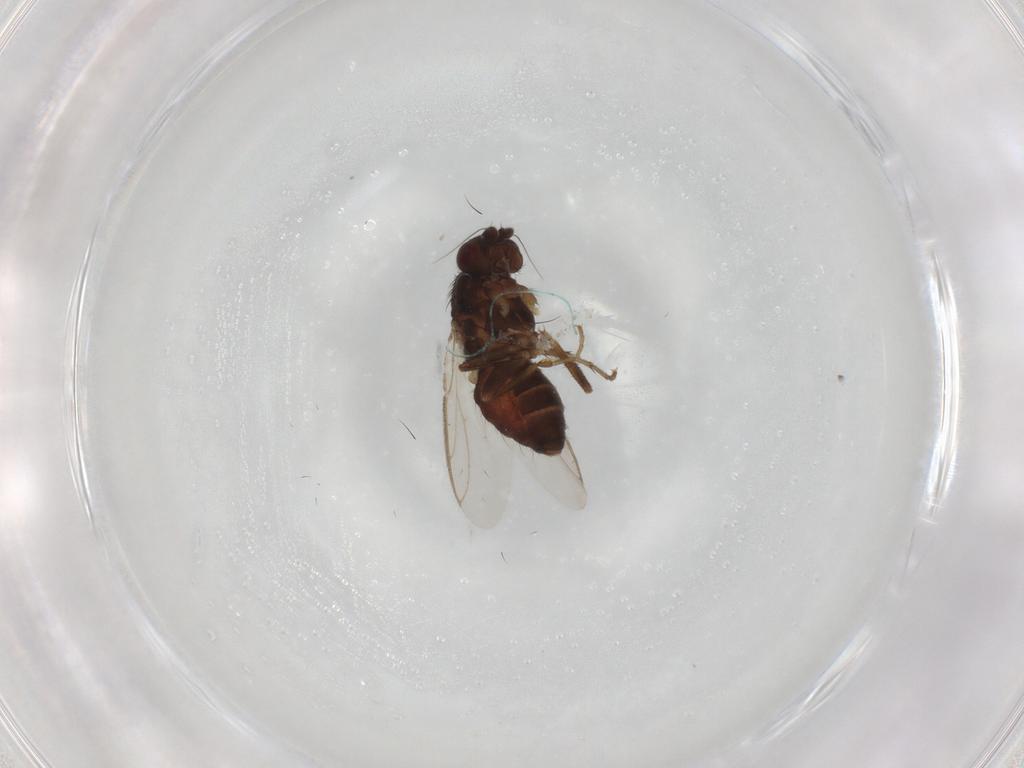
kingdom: Animalia
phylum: Arthropoda
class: Insecta
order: Diptera
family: Sphaeroceridae
